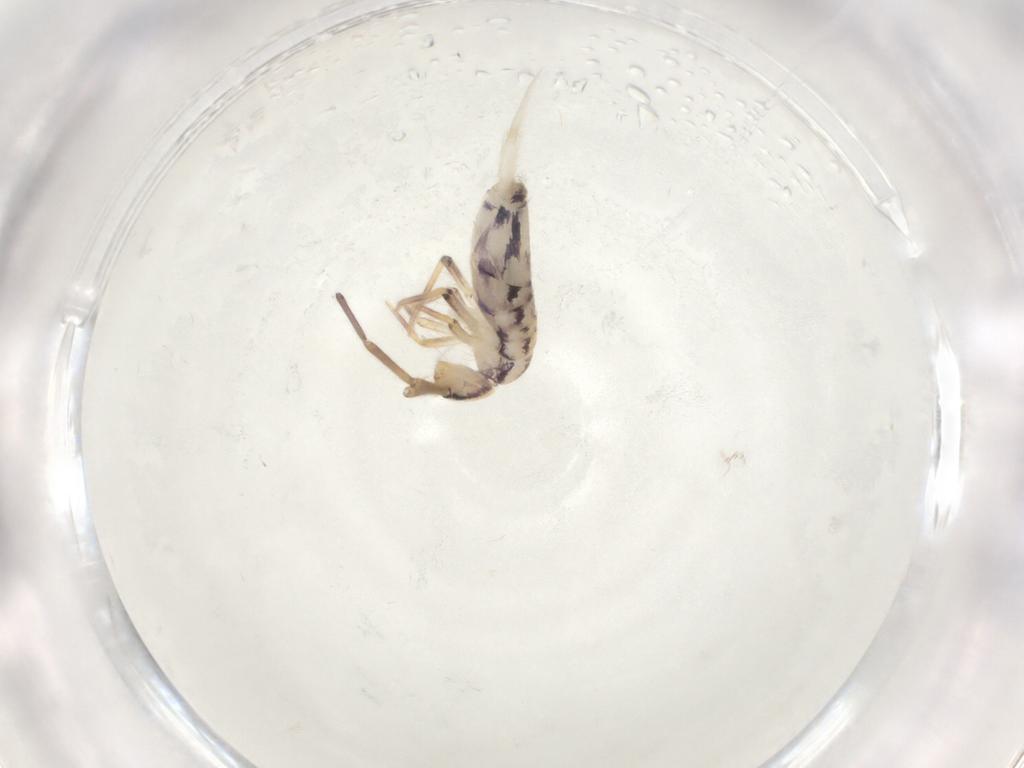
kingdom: Animalia
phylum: Arthropoda
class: Collembola
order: Entomobryomorpha
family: Entomobryidae
